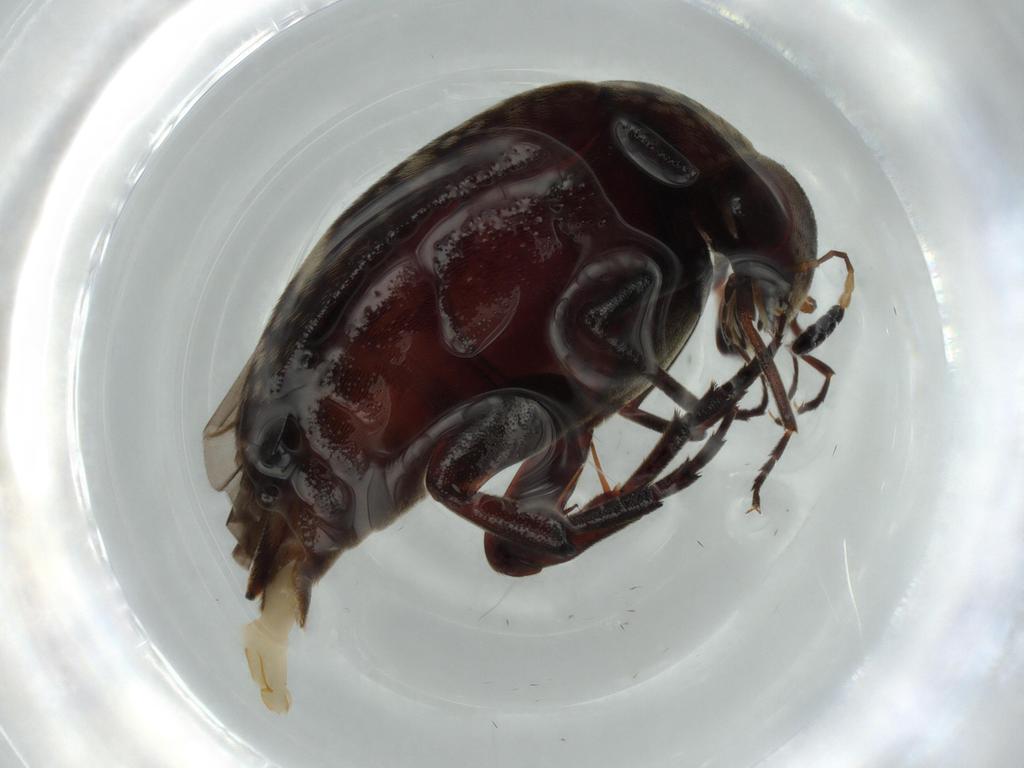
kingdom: Animalia
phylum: Arthropoda
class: Insecta
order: Coleoptera
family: Chrysomelidae
